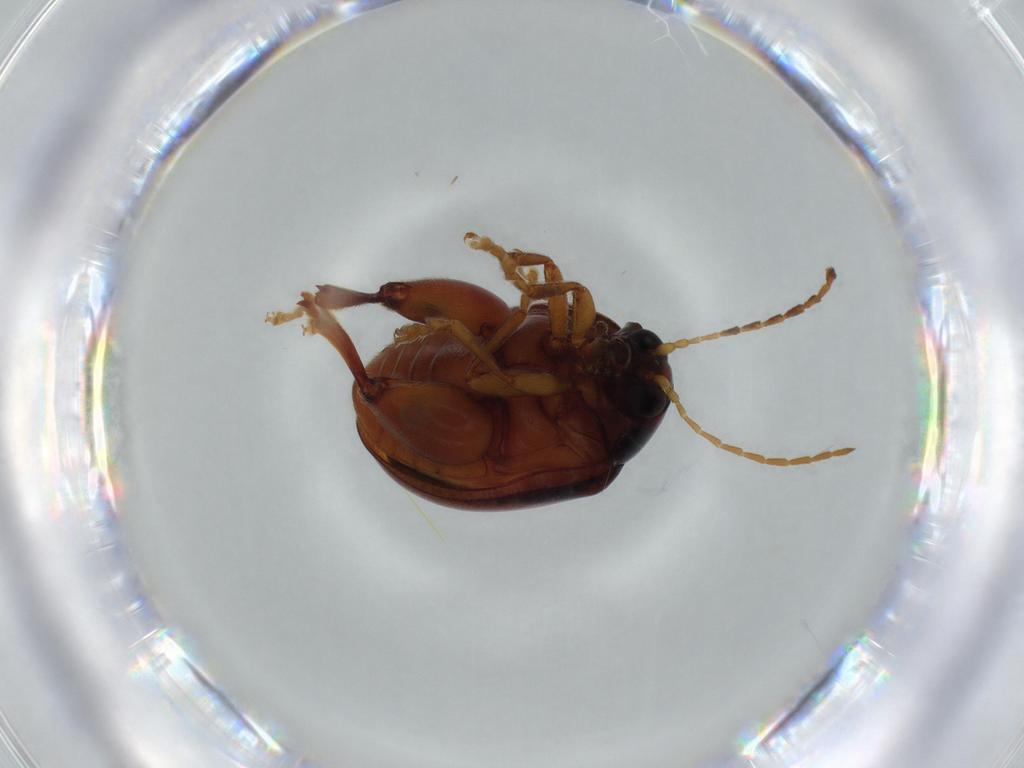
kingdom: Animalia
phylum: Arthropoda
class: Insecta
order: Coleoptera
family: Chrysomelidae
